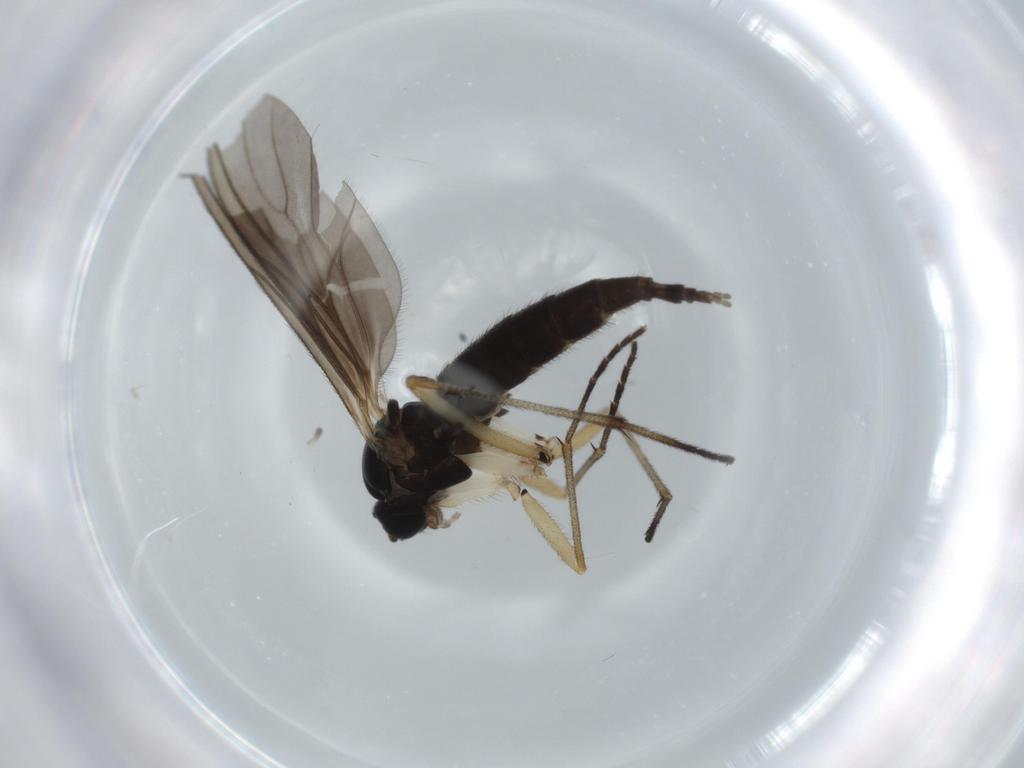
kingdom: Animalia
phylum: Arthropoda
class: Insecta
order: Diptera
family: Sciaridae
